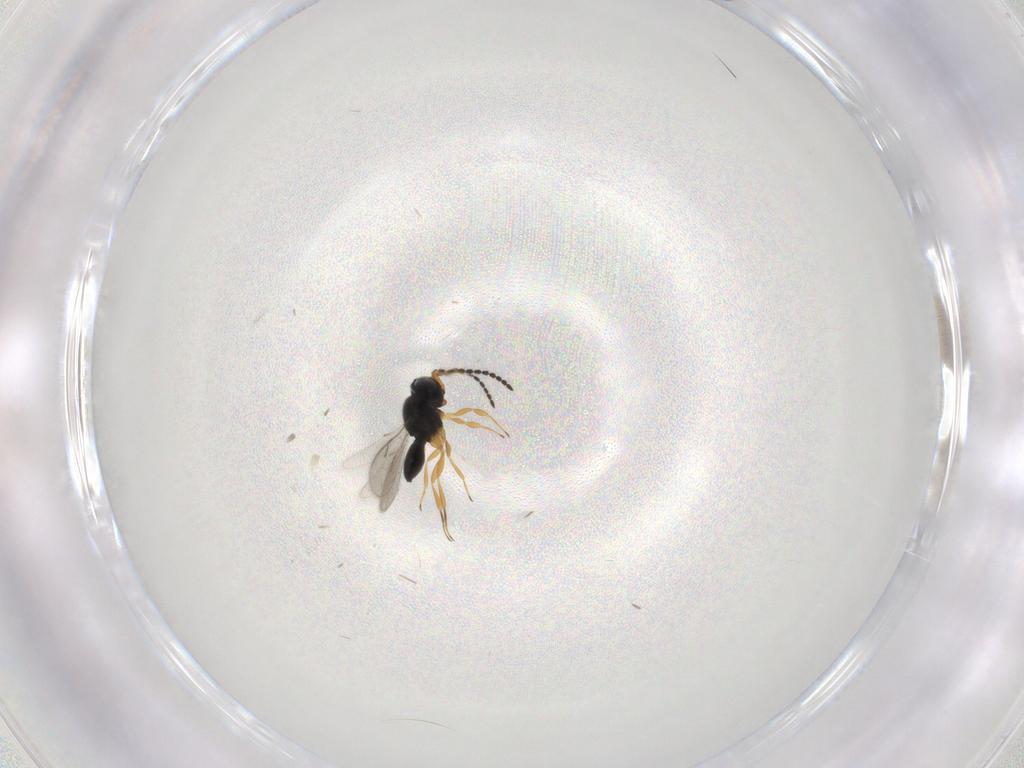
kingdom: Animalia
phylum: Arthropoda
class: Insecta
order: Hymenoptera
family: Scelionidae
